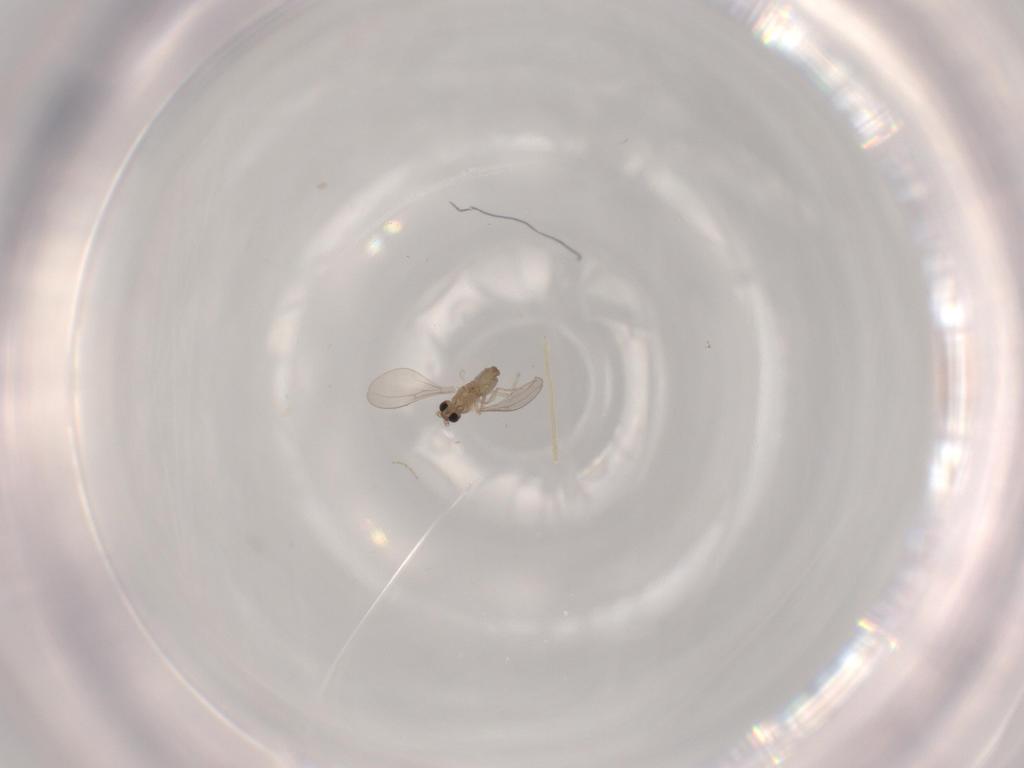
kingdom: Animalia
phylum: Arthropoda
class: Insecta
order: Diptera
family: Cecidomyiidae
